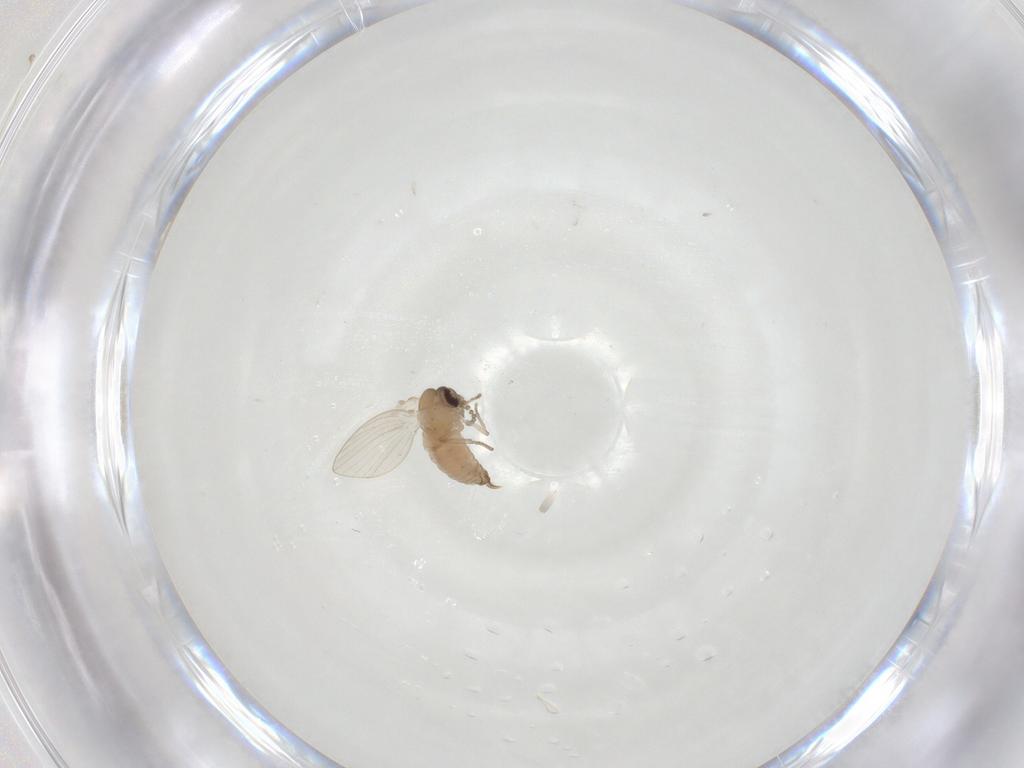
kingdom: Animalia
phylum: Arthropoda
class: Insecta
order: Diptera
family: Psychodidae
